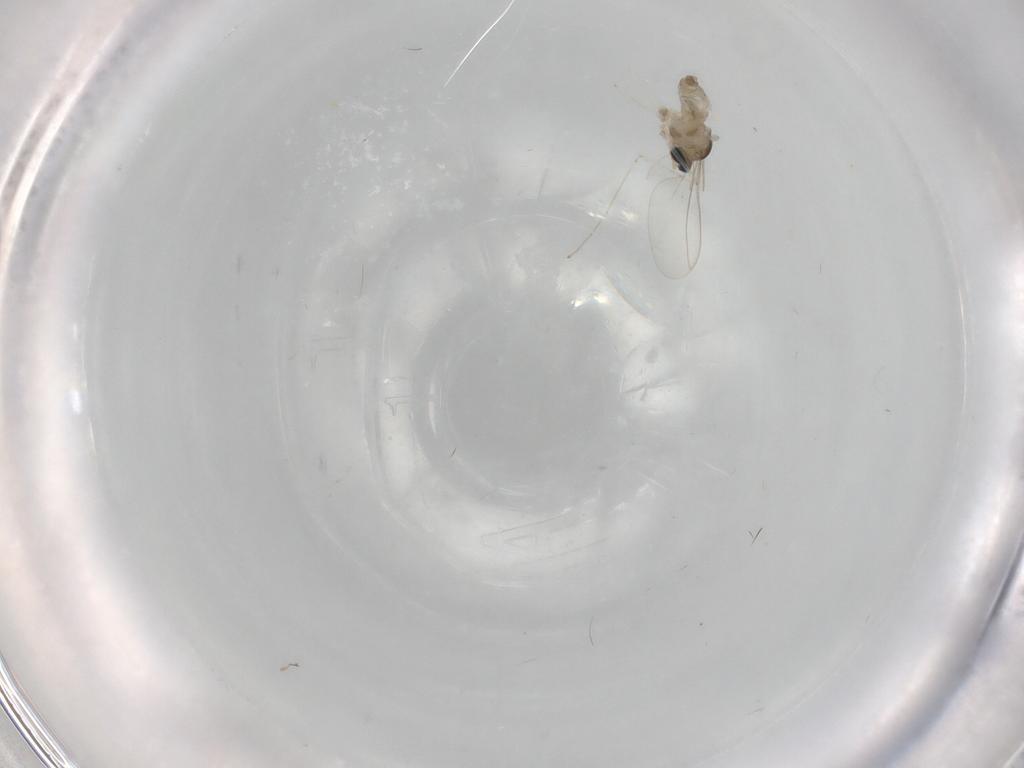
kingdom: Animalia
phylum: Arthropoda
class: Insecta
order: Diptera
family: Cecidomyiidae
